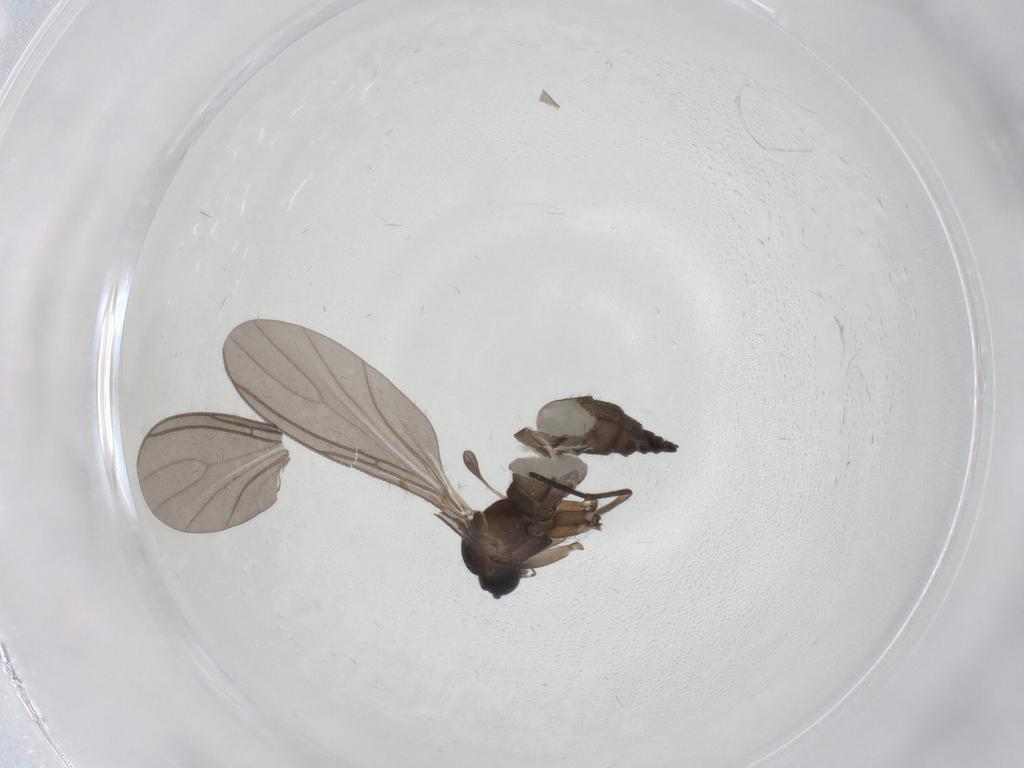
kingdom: Animalia
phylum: Arthropoda
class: Insecta
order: Diptera
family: Sciaridae
